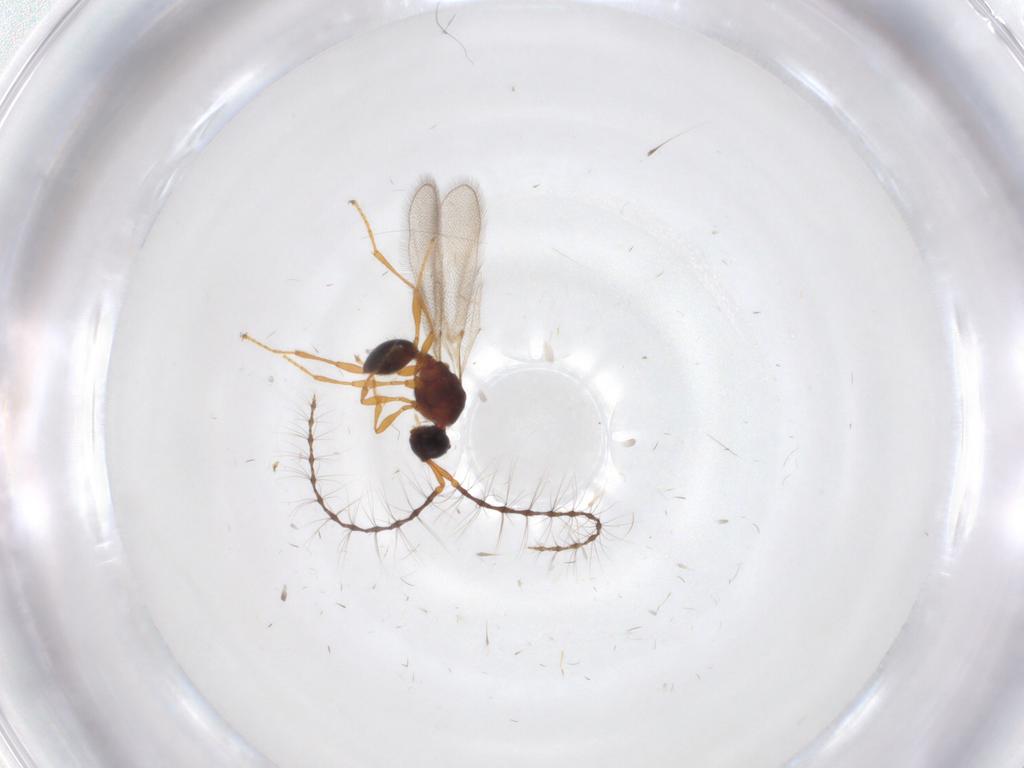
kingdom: Animalia
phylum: Arthropoda
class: Insecta
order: Hymenoptera
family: Diapriidae
